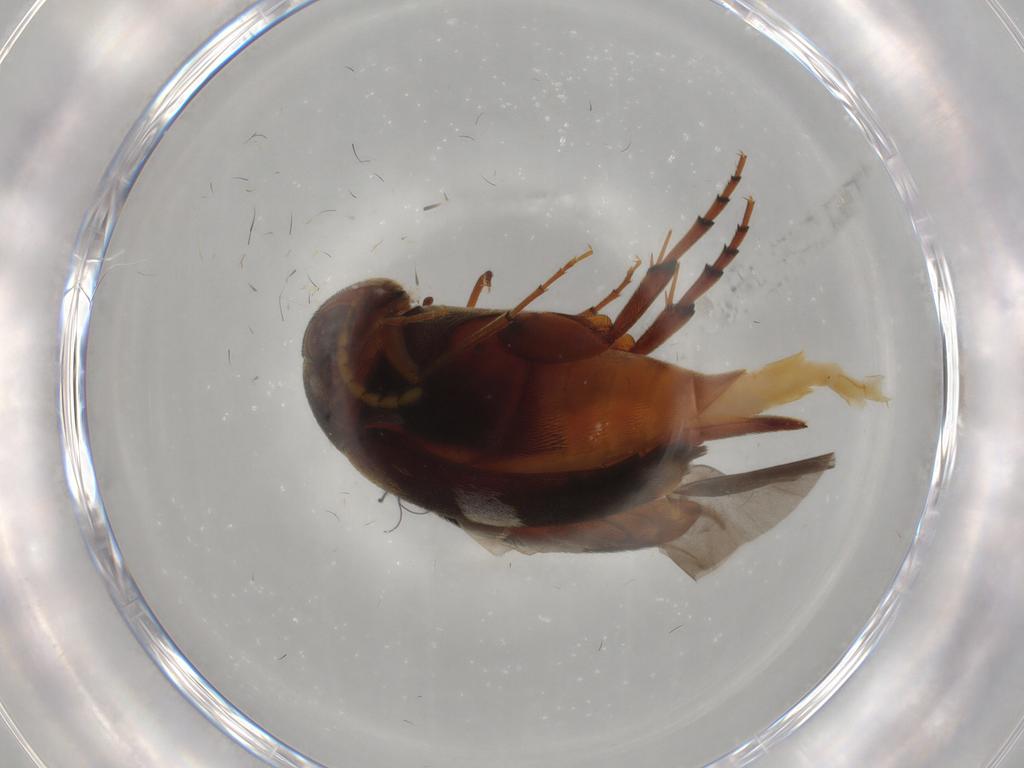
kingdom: Animalia
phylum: Arthropoda
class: Insecta
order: Coleoptera
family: Mordellidae
